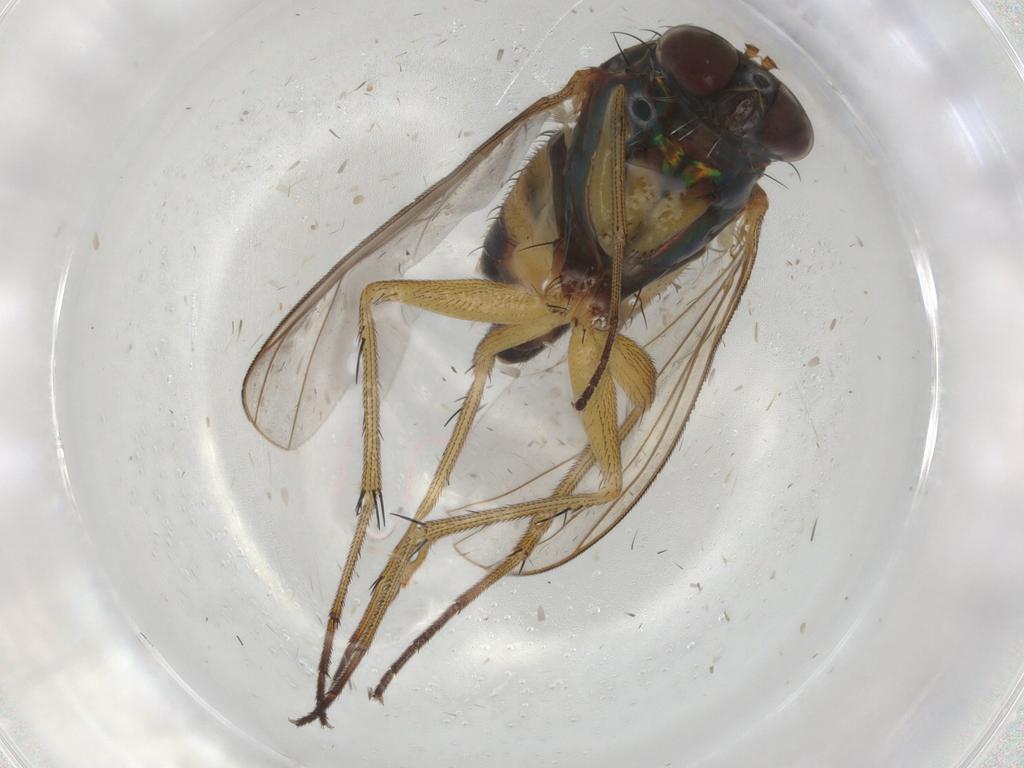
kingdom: Animalia
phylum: Arthropoda
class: Insecta
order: Diptera
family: Chironomidae
